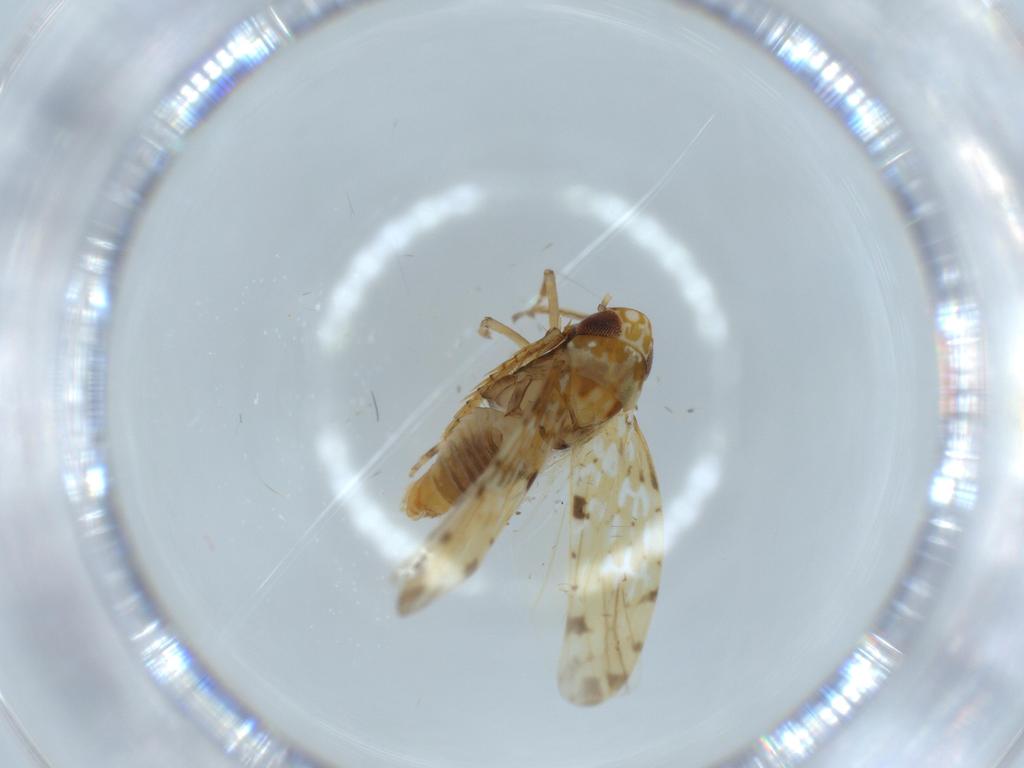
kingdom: Animalia
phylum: Arthropoda
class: Insecta
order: Hemiptera
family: Cicadellidae
